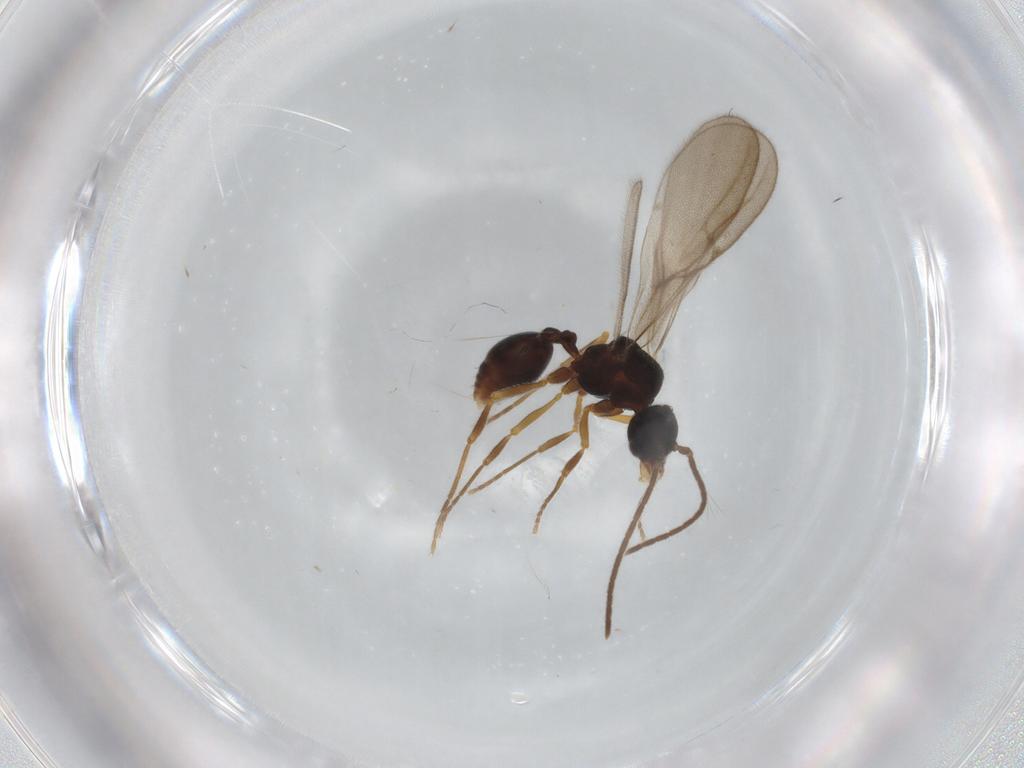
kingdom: Animalia
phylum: Arthropoda
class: Insecta
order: Hymenoptera
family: Formicidae
